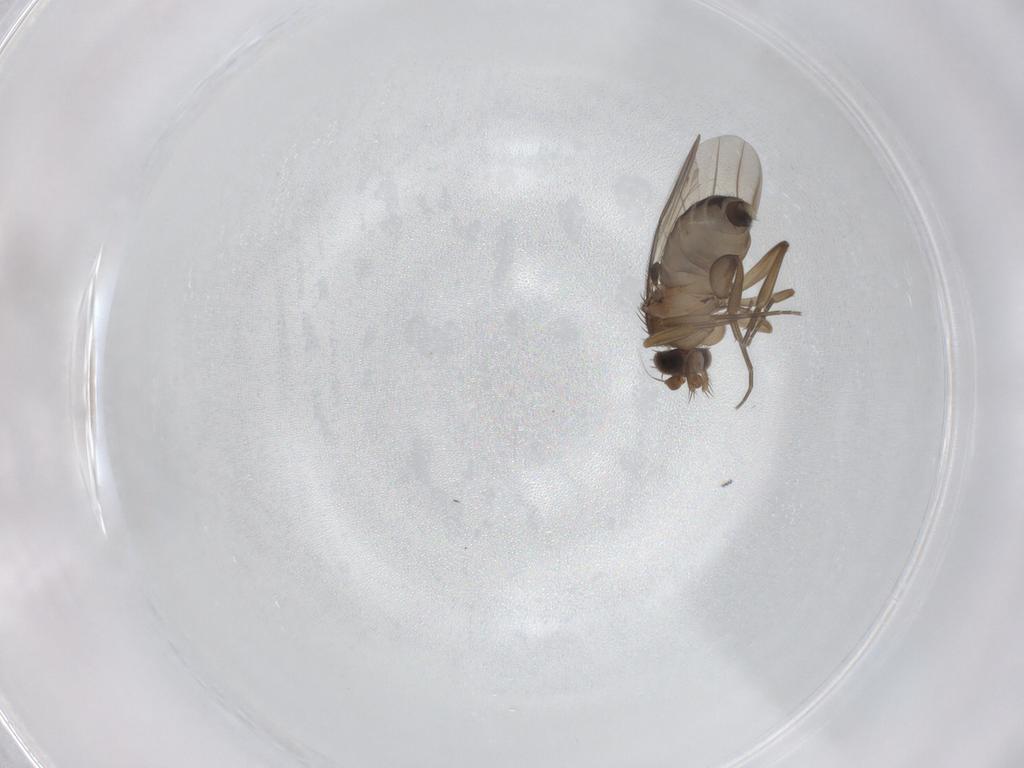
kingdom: Animalia
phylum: Arthropoda
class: Insecta
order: Diptera
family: Phoridae
